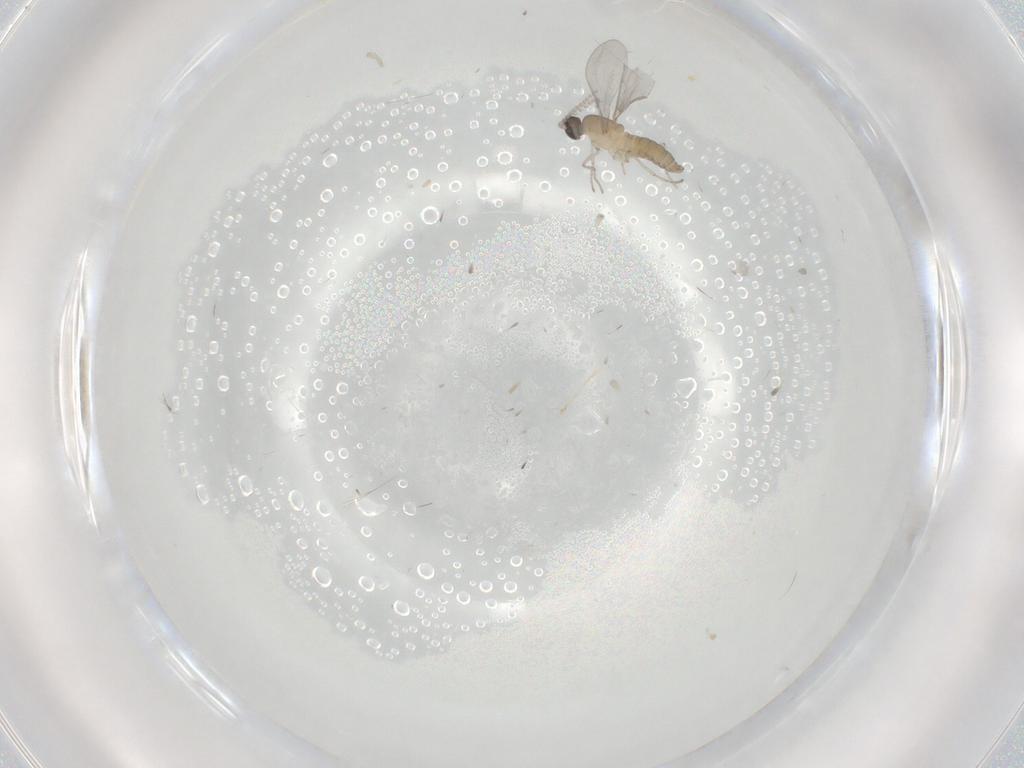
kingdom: Animalia
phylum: Arthropoda
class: Insecta
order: Diptera
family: Cecidomyiidae
